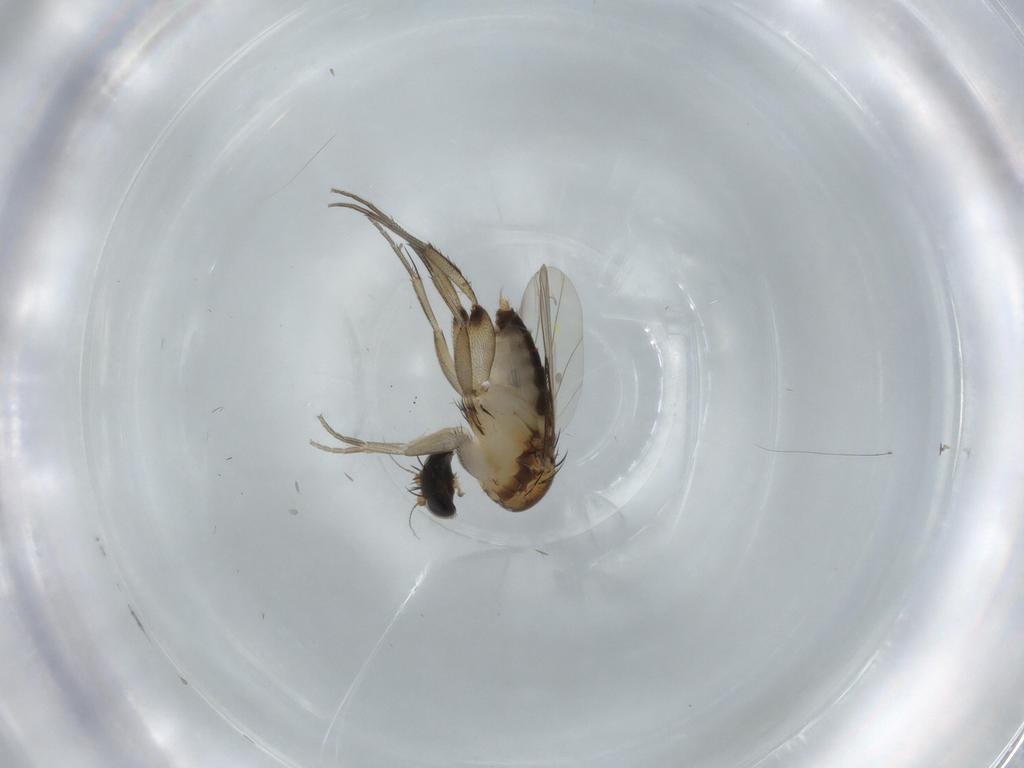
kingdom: Animalia
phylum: Arthropoda
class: Insecta
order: Diptera
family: Phoridae
